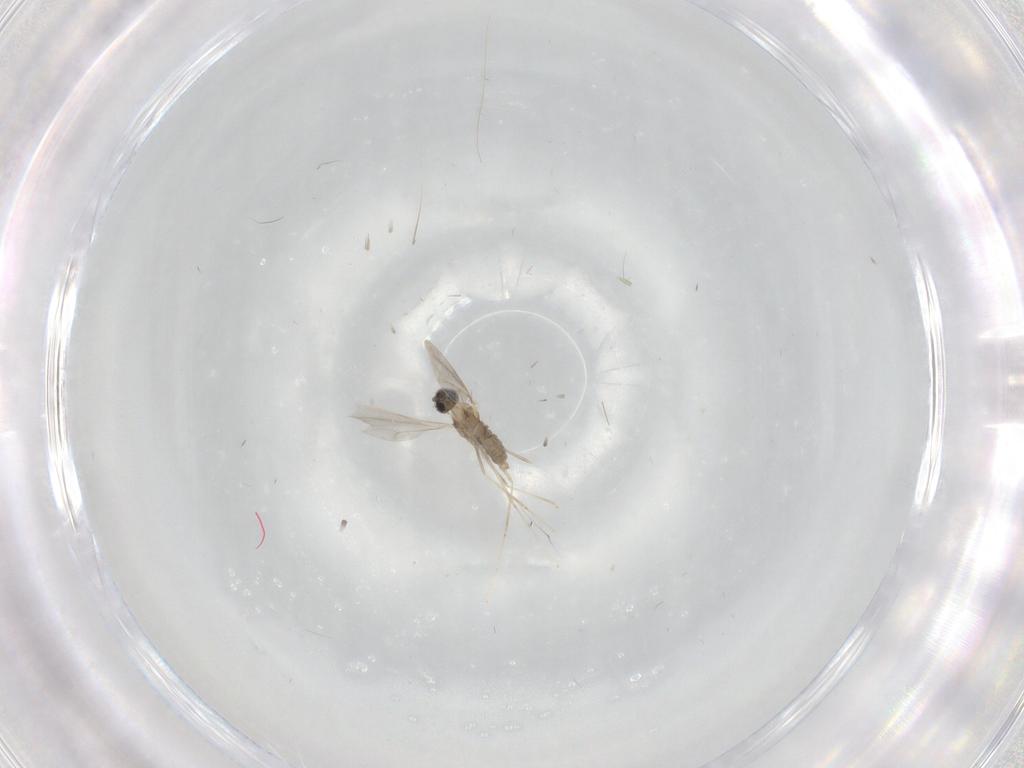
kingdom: Animalia
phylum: Arthropoda
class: Insecta
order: Diptera
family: Cecidomyiidae
